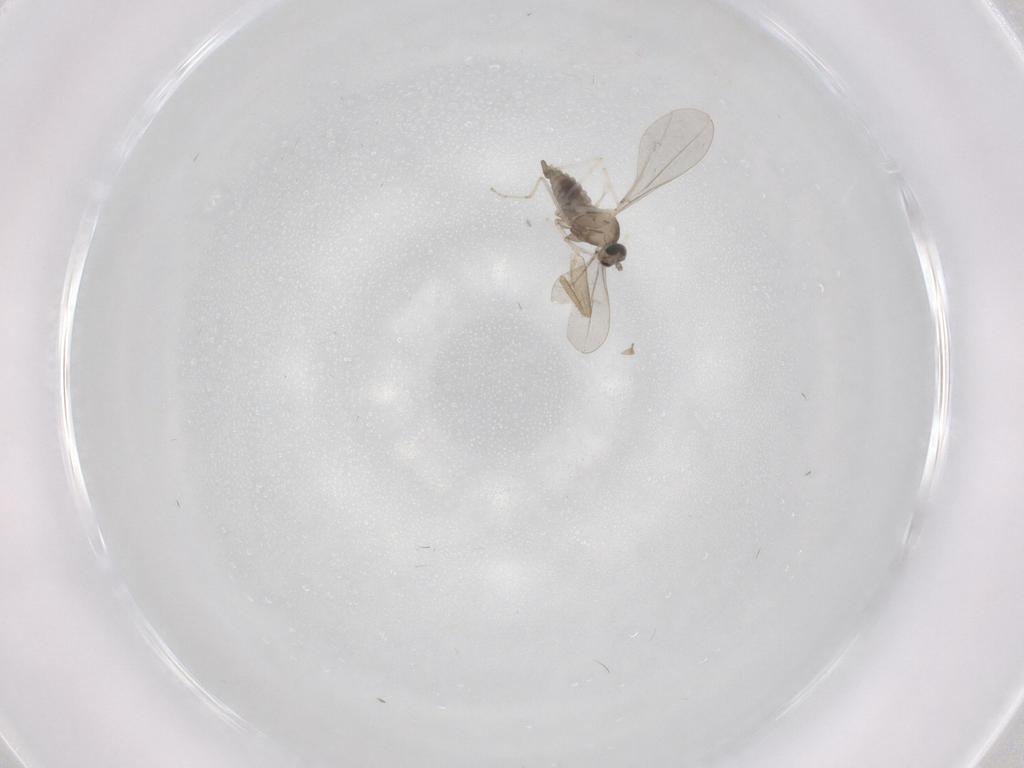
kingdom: Animalia
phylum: Arthropoda
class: Insecta
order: Diptera
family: Phoridae
